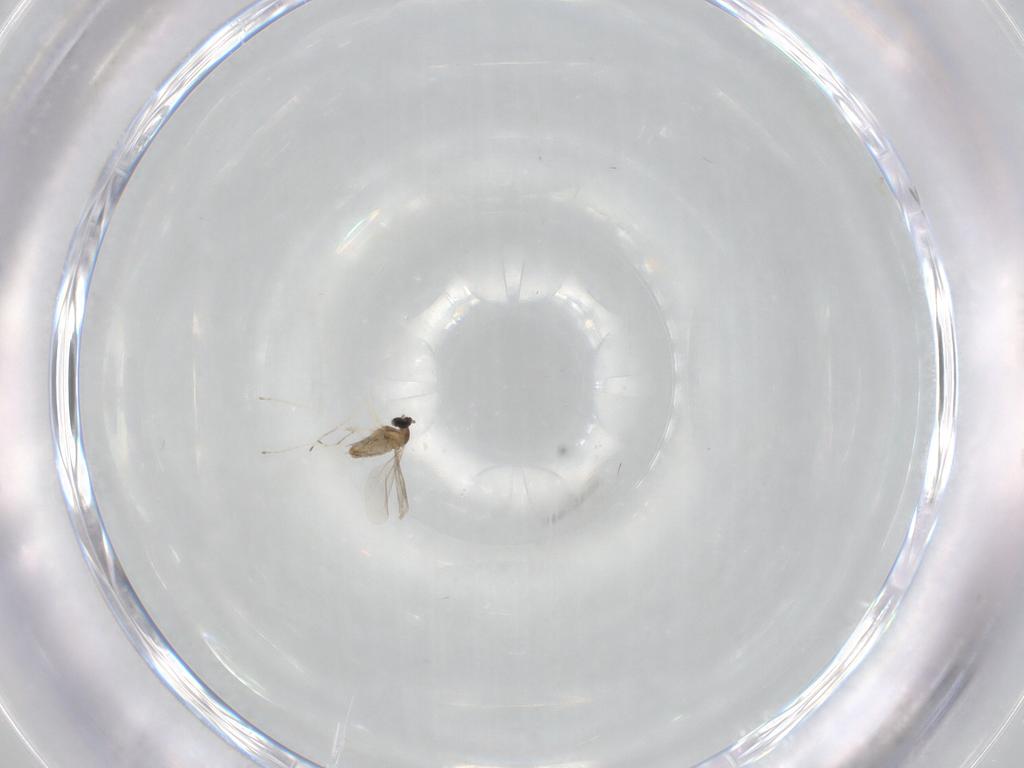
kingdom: Animalia
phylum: Arthropoda
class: Insecta
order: Diptera
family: Cecidomyiidae
